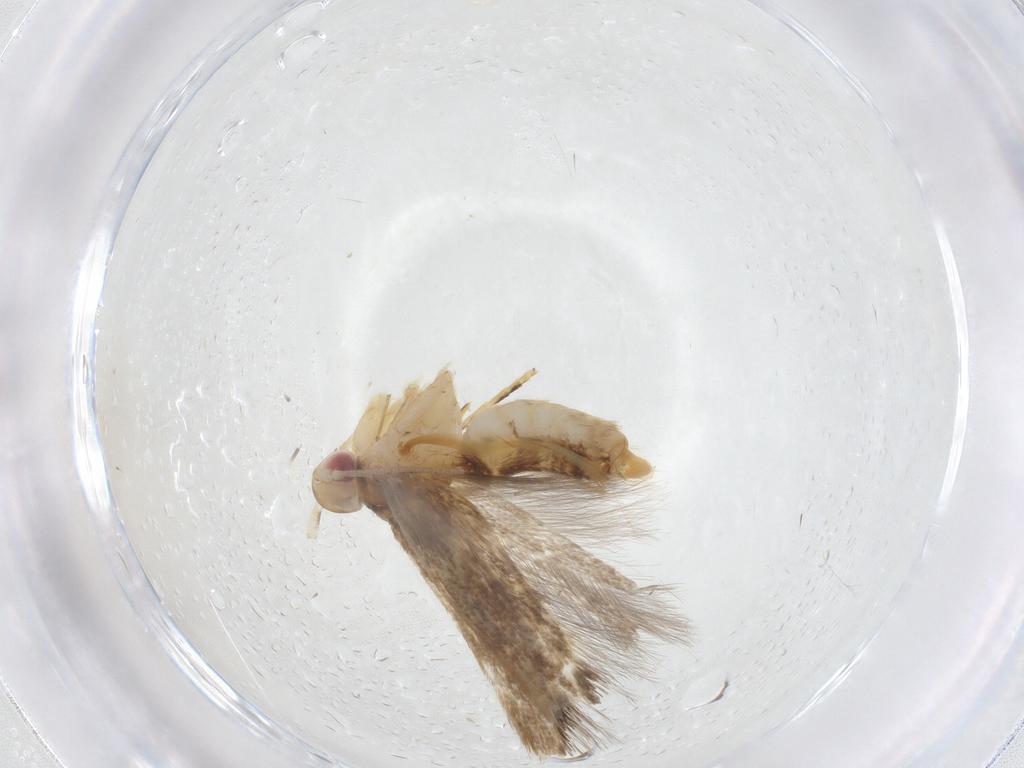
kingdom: Animalia
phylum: Arthropoda
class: Insecta
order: Lepidoptera
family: Cosmopterigidae
